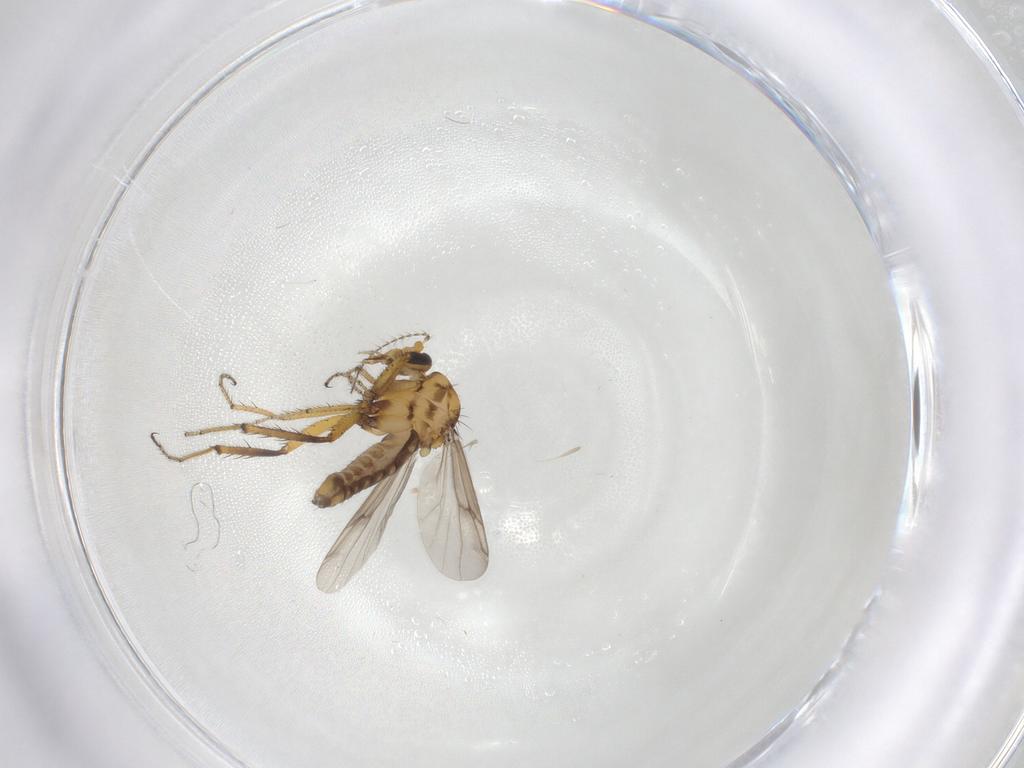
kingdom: Animalia
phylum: Arthropoda
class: Insecta
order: Diptera
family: Ceratopogonidae
